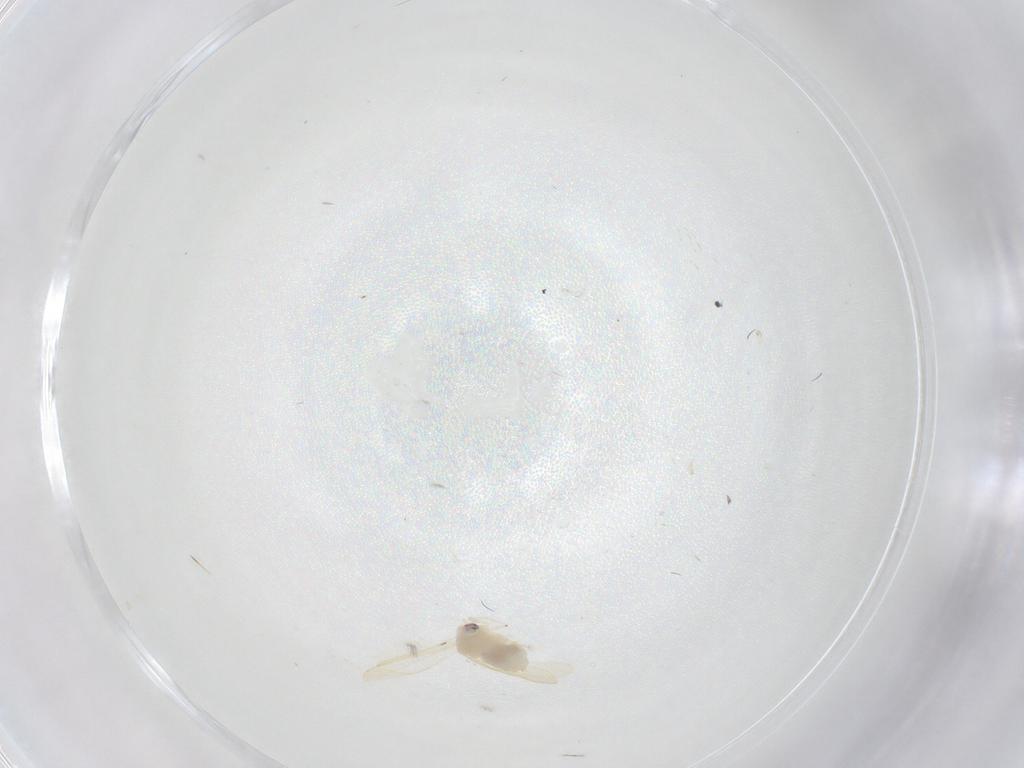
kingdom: Animalia
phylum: Arthropoda
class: Insecta
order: Hemiptera
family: Aleyrodidae
